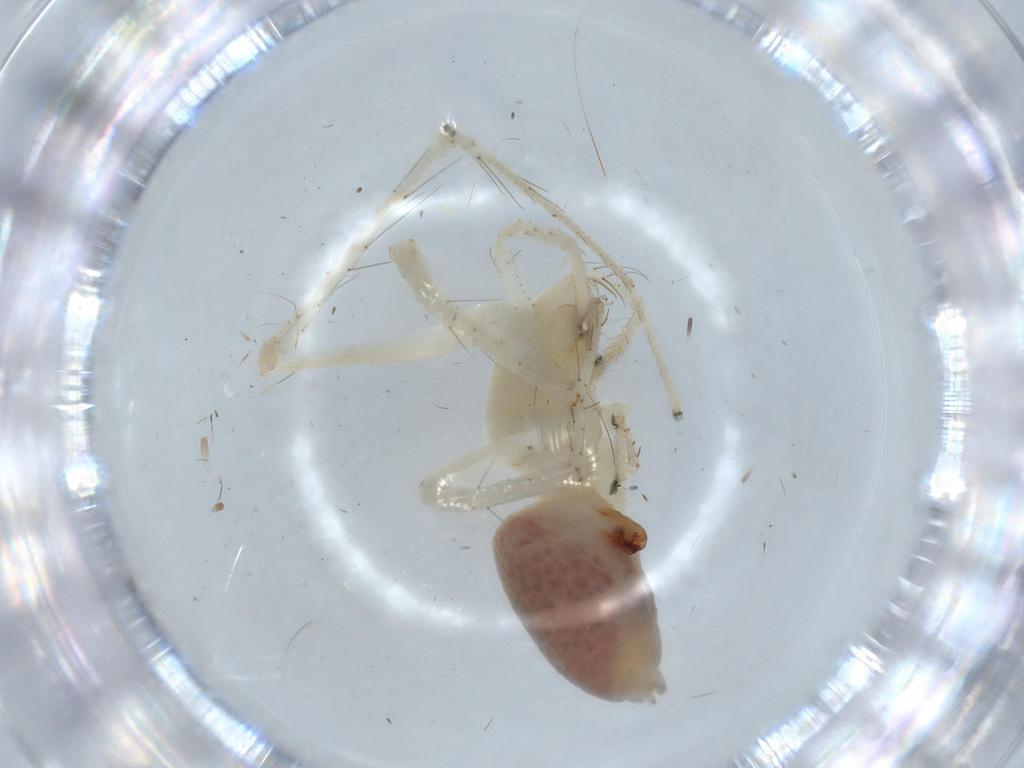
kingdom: Animalia
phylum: Arthropoda
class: Arachnida
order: Araneae
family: Anyphaenidae
